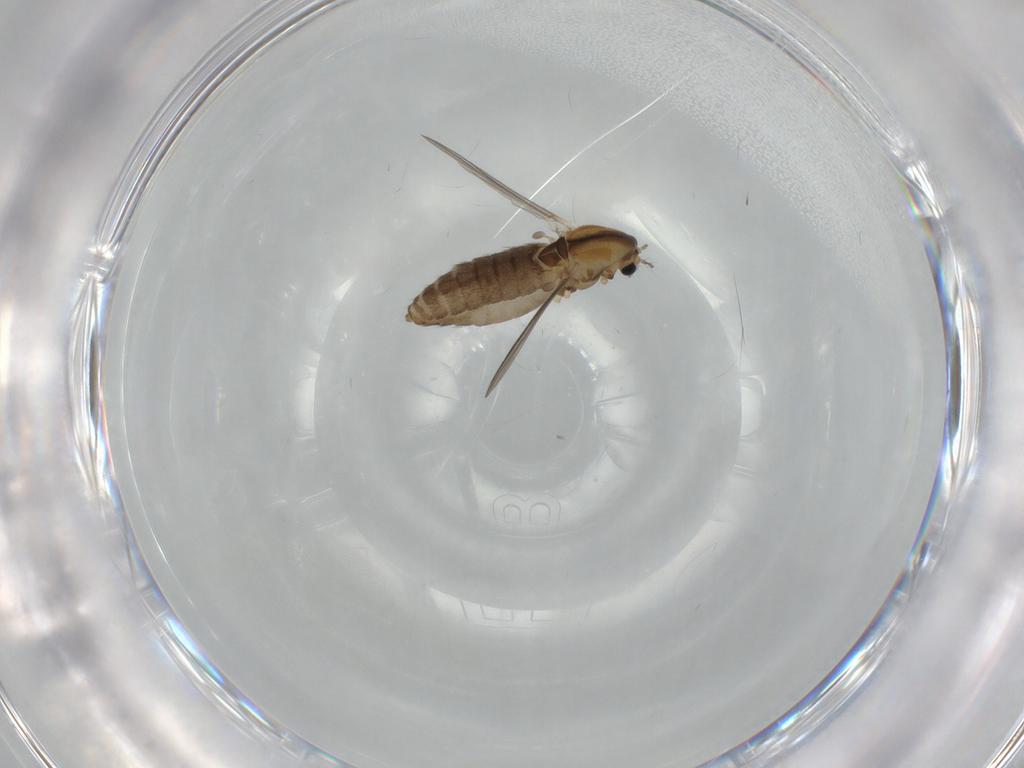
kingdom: Animalia
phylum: Arthropoda
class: Insecta
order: Diptera
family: Chironomidae
